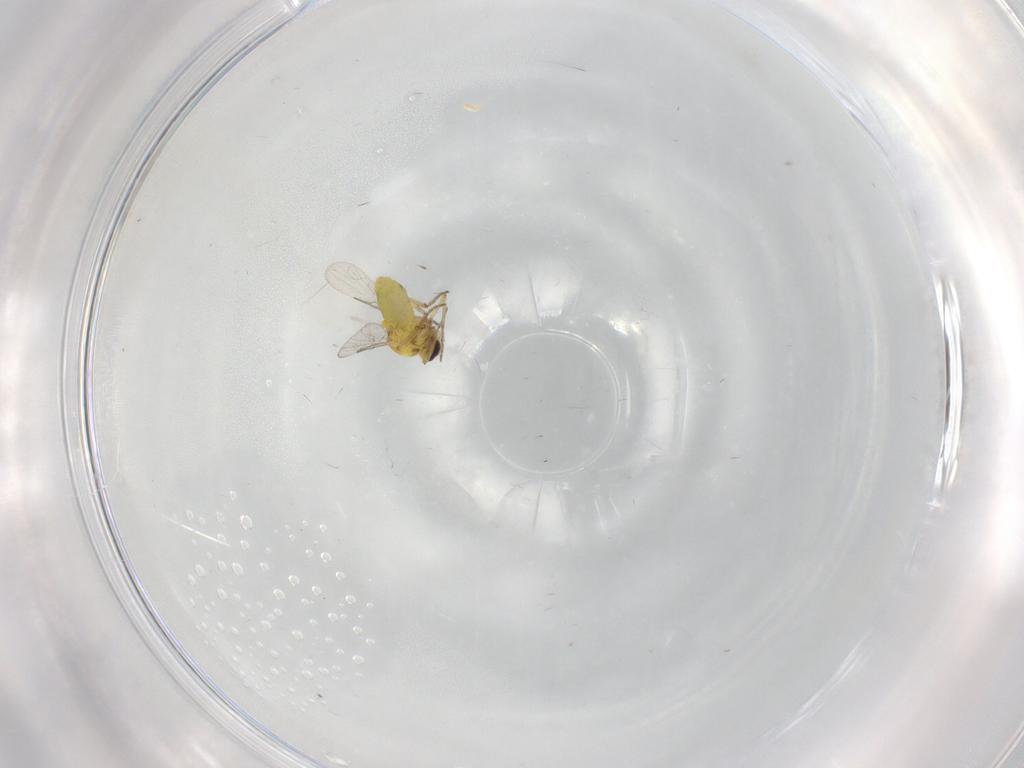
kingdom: Animalia
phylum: Arthropoda
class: Insecta
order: Diptera
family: Ceratopogonidae
